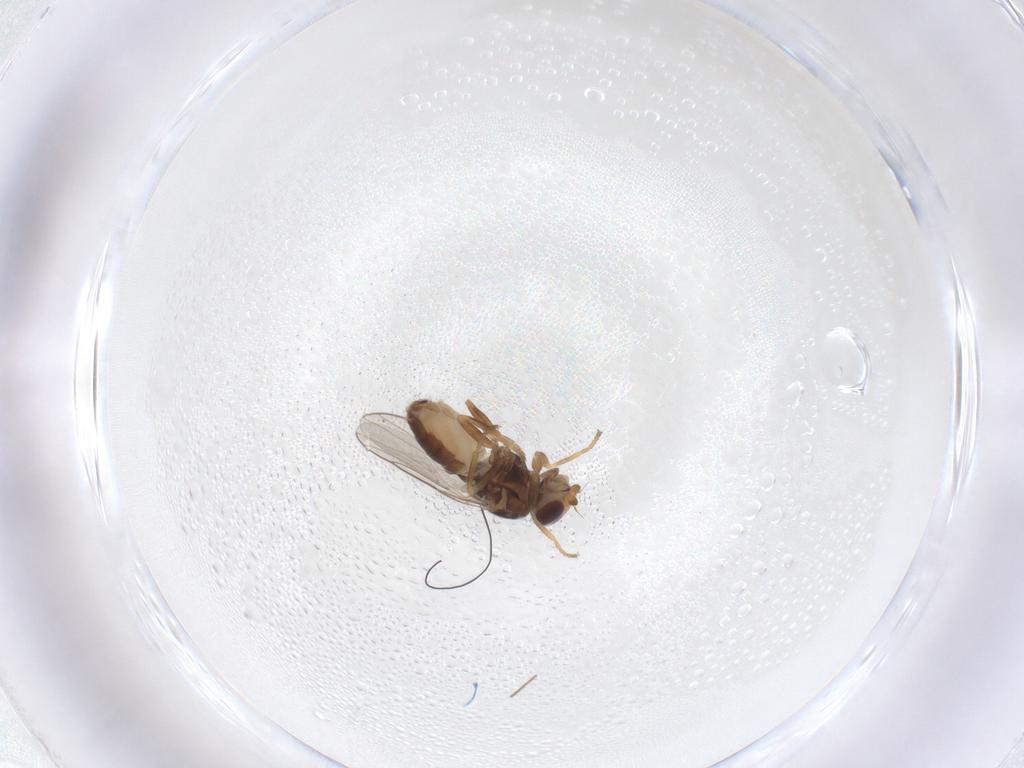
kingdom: Animalia
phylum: Arthropoda
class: Insecta
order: Diptera
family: Chloropidae
